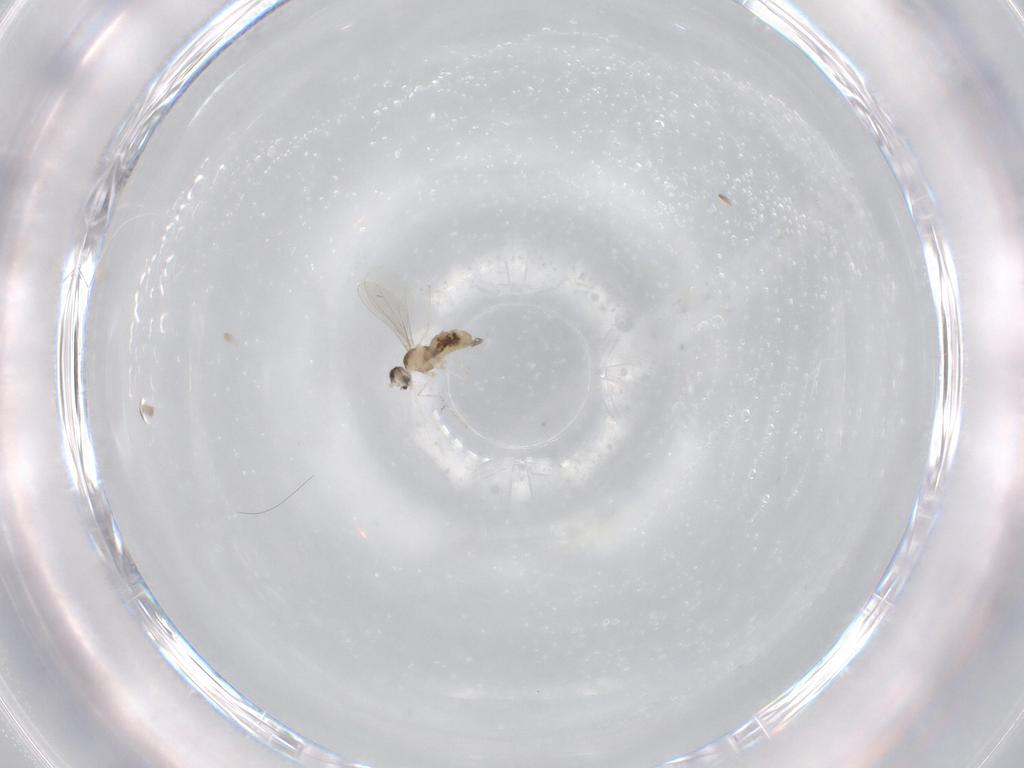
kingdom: Animalia
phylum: Arthropoda
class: Insecta
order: Diptera
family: Cecidomyiidae
